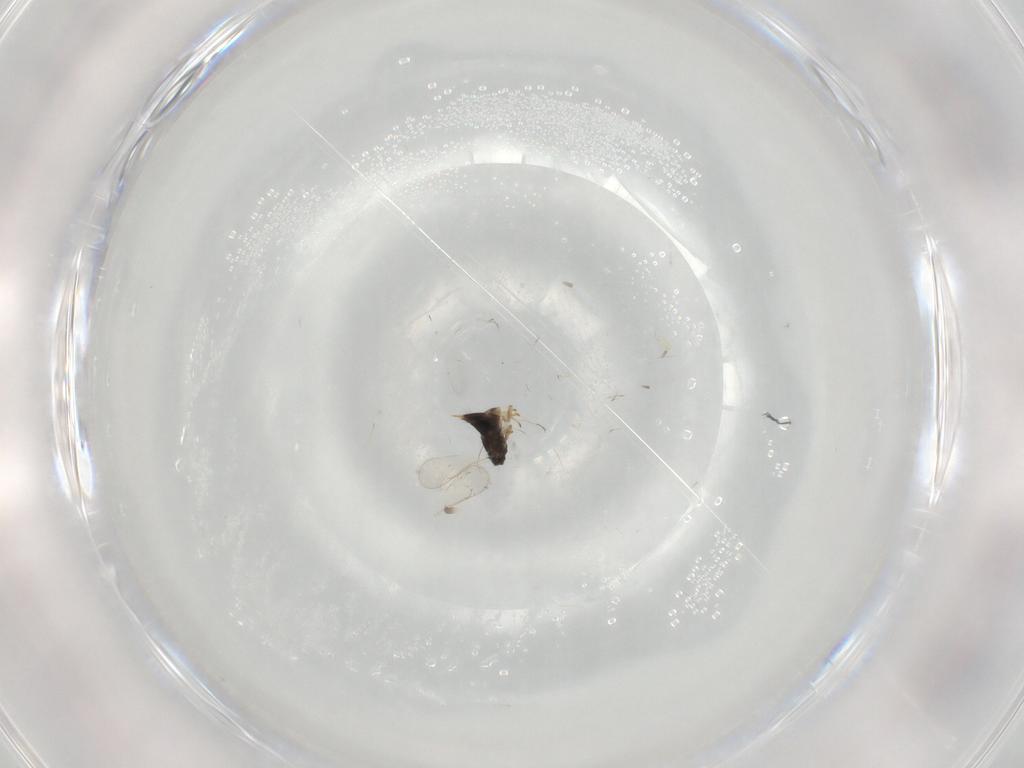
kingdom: Animalia
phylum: Arthropoda
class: Insecta
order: Hymenoptera
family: Aphelinidae
